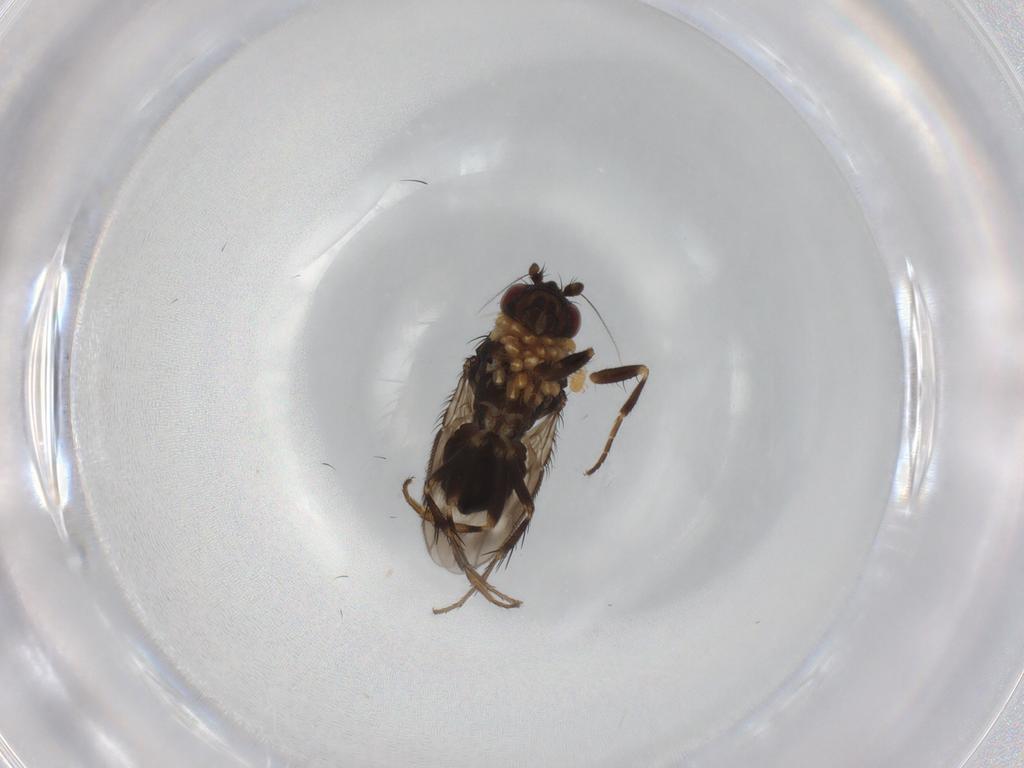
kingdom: Animalia
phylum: Arthropoda
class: Insecta
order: Diptera
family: Sphaeroceridae
